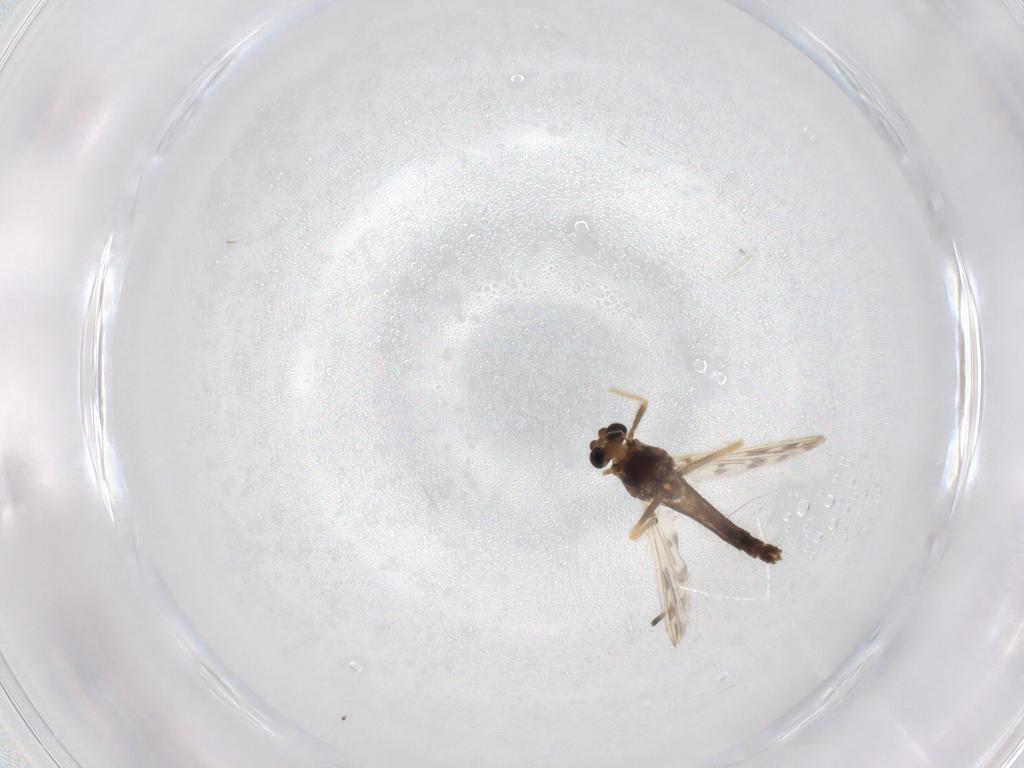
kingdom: Animalia
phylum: Arthropoda
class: Insecta
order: Diptera
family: Chironomidae
